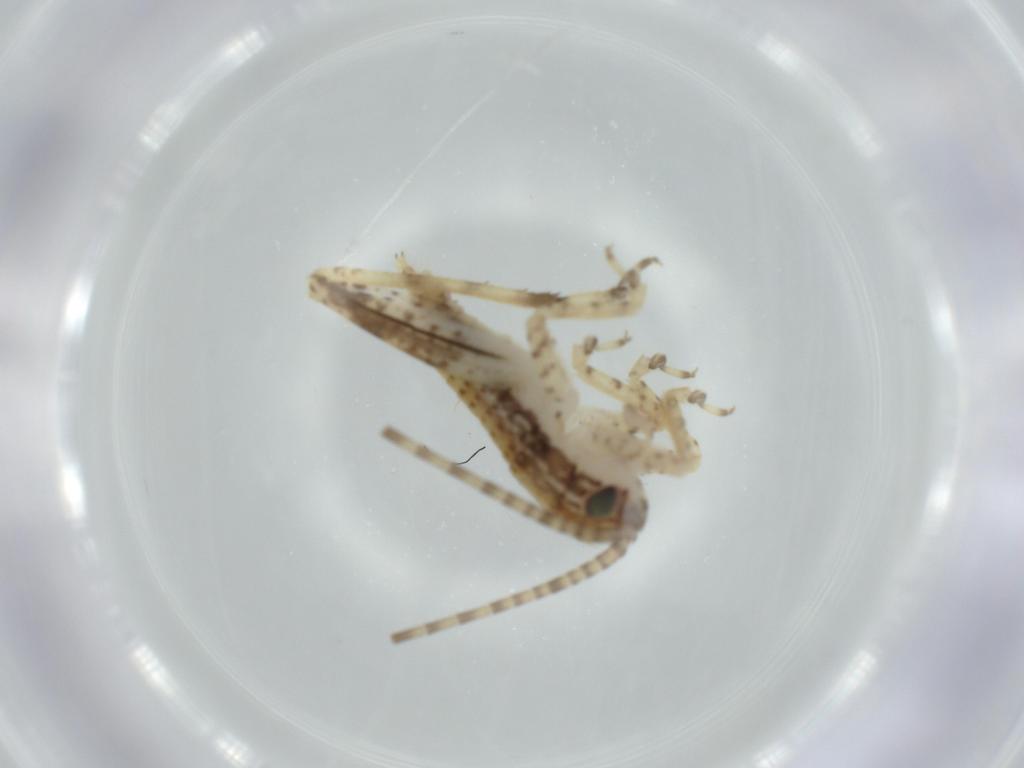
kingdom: Animalia
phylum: Arthropoda
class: Insecta
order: Orthoptera
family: Gryllidae
